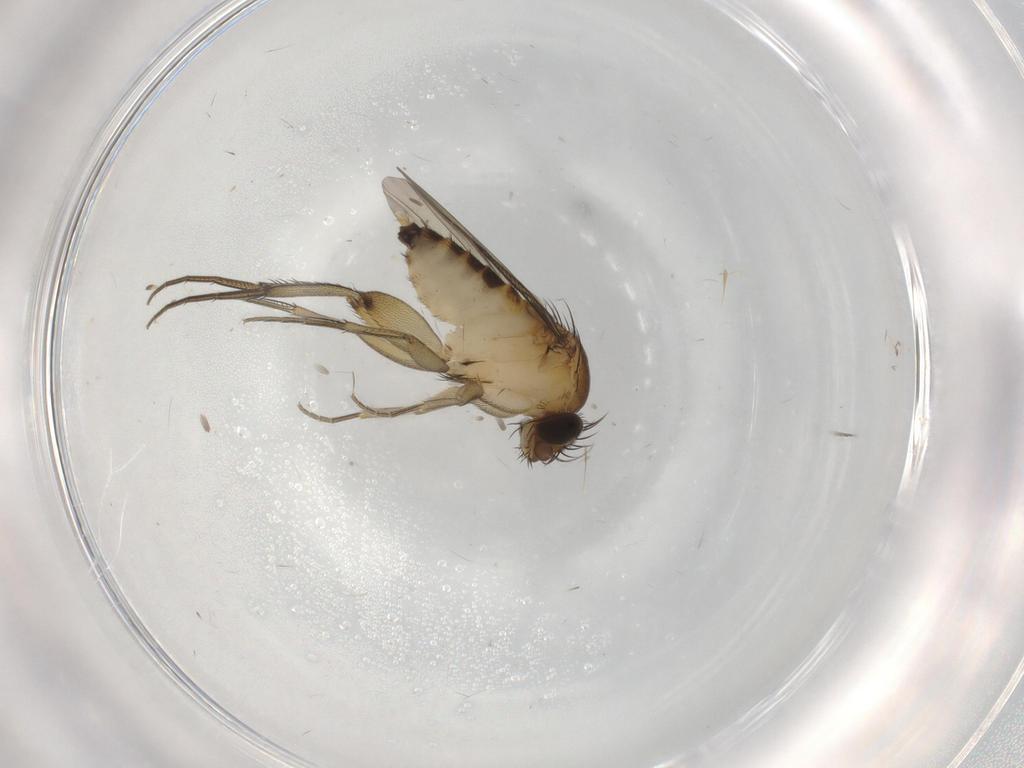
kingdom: Animalia
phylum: Arthropoda
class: Insecta
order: Diptera
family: Phoridae
